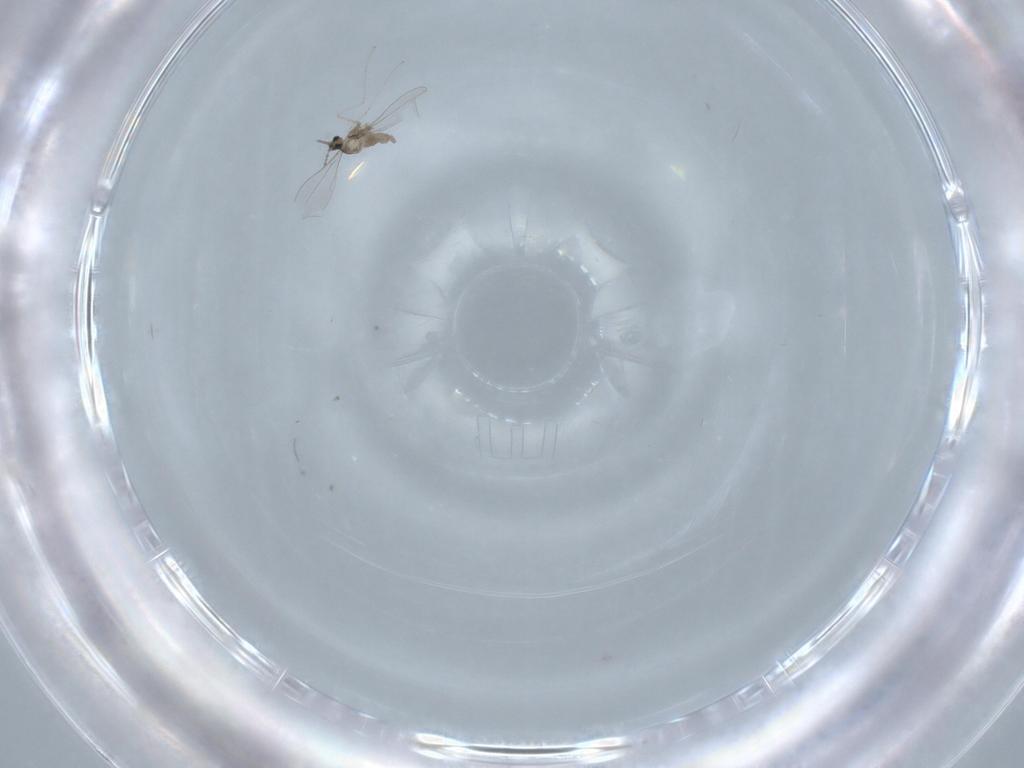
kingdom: Animalia
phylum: Arthropoda
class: Insecta
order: Diptera
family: Cecidomyiidae
